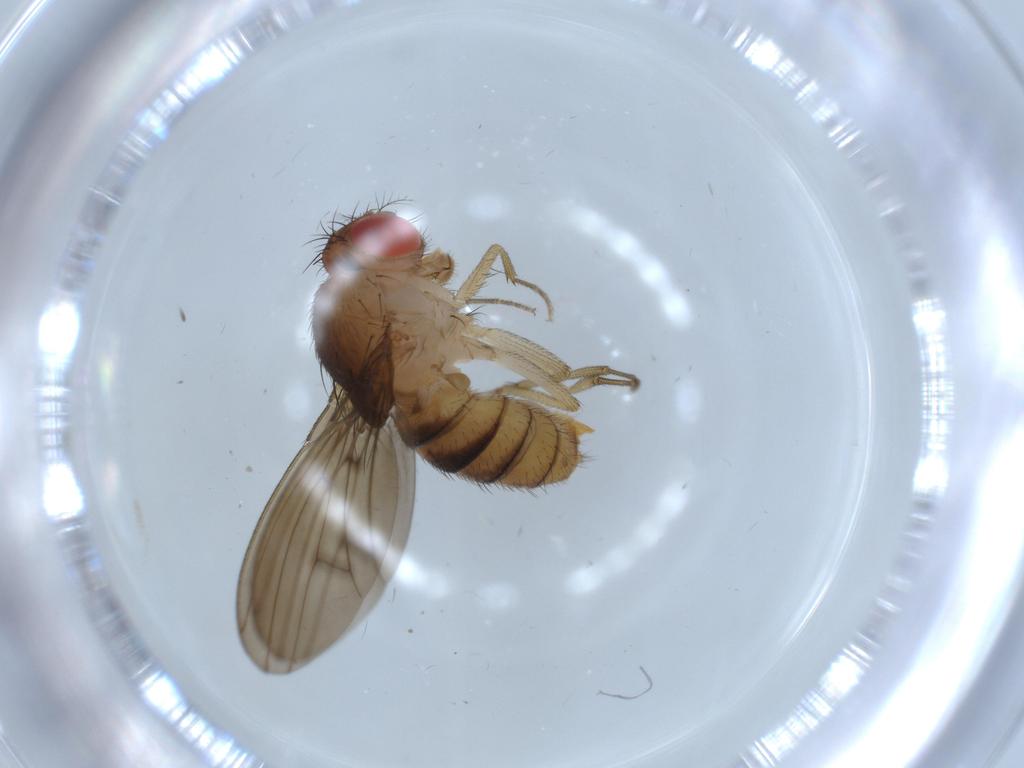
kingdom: Animalia
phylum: Arthropoda
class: Insecta
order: Diptera
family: Drosophilidae
